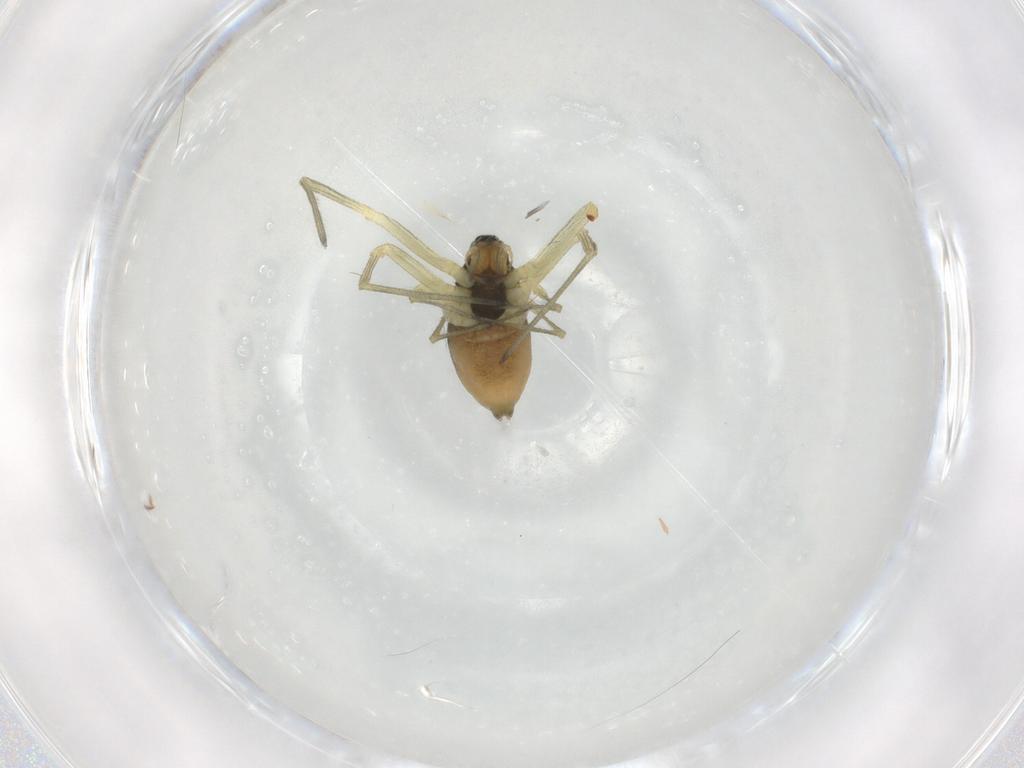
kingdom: Animalia
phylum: Arthropoda
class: Arachnida
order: Araneae
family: Linyphiidae
